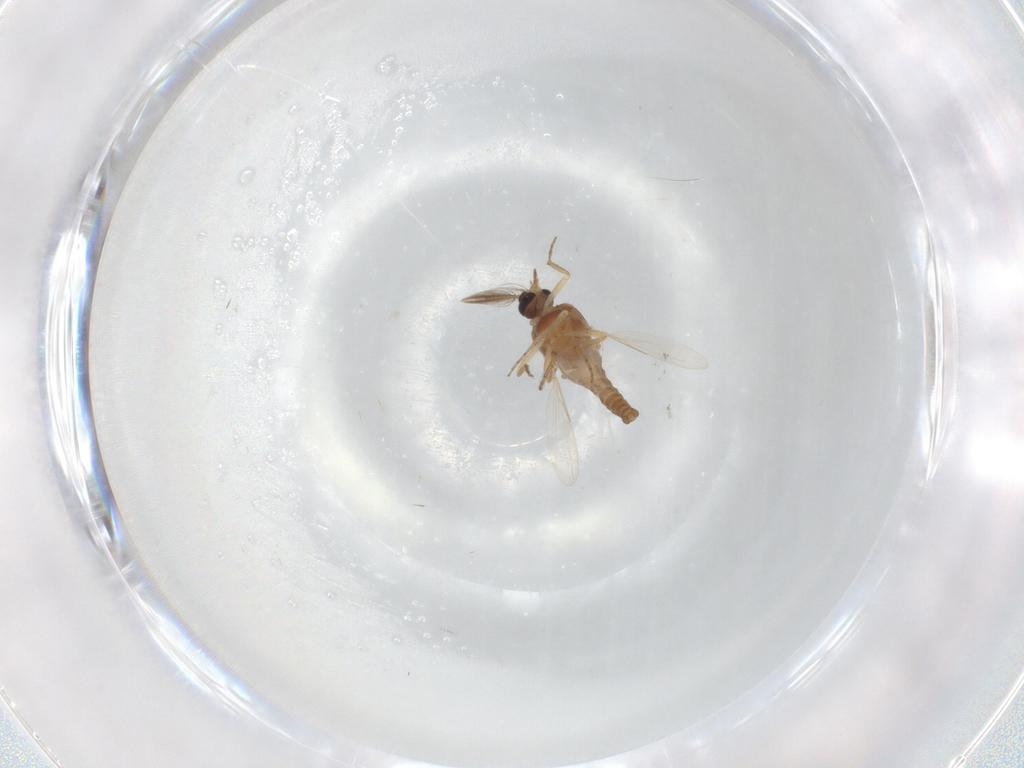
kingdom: Animalia
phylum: Arthropoda
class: Insecta
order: Diptera
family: Ceratopogonidae
